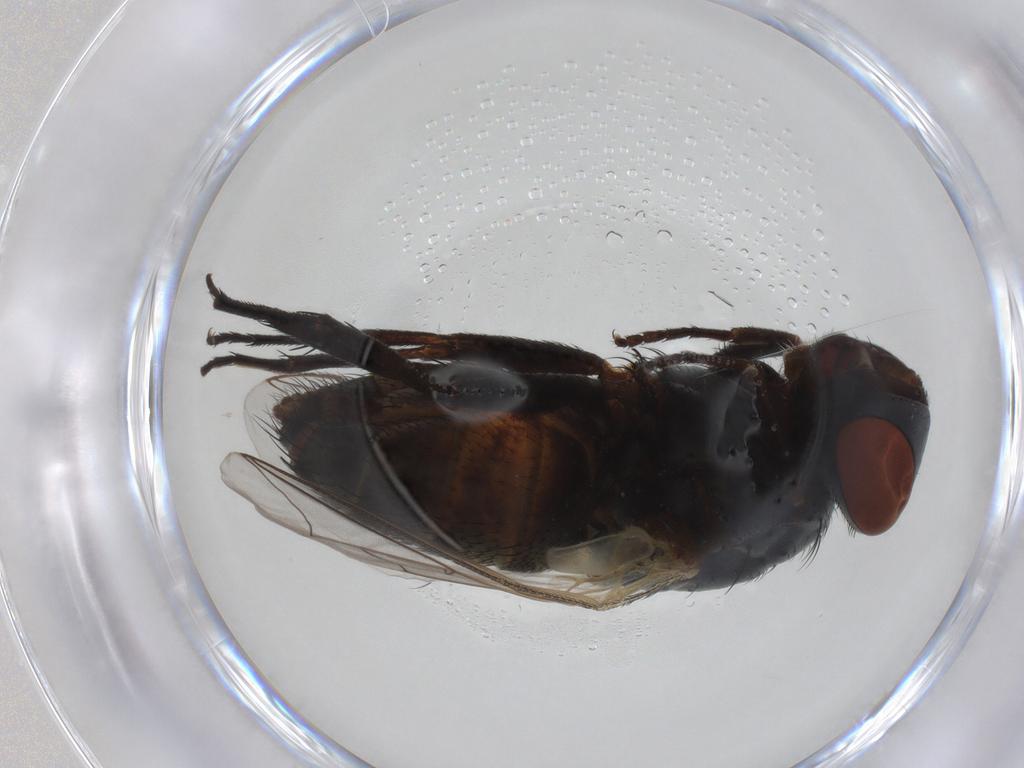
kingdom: Animalia
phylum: Arthropoda
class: Insecta
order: Diptera
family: Sarcophagidae
